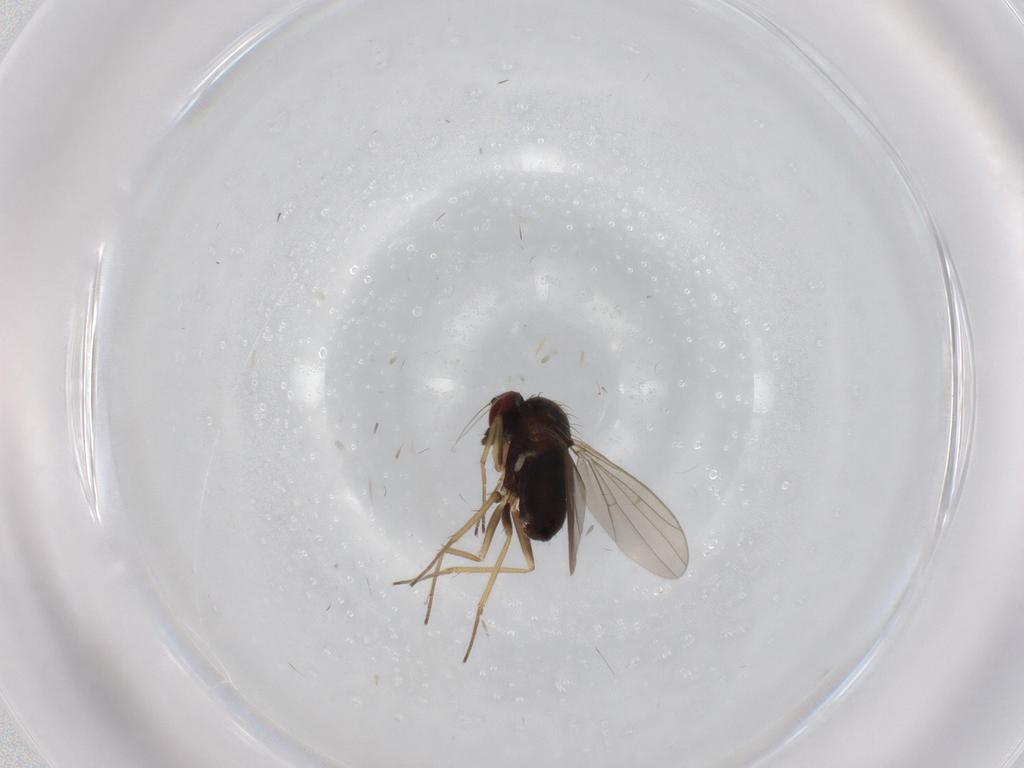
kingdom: Animalia
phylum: Arthropoda
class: Insecta
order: Diptera
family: Dolichopodidae
